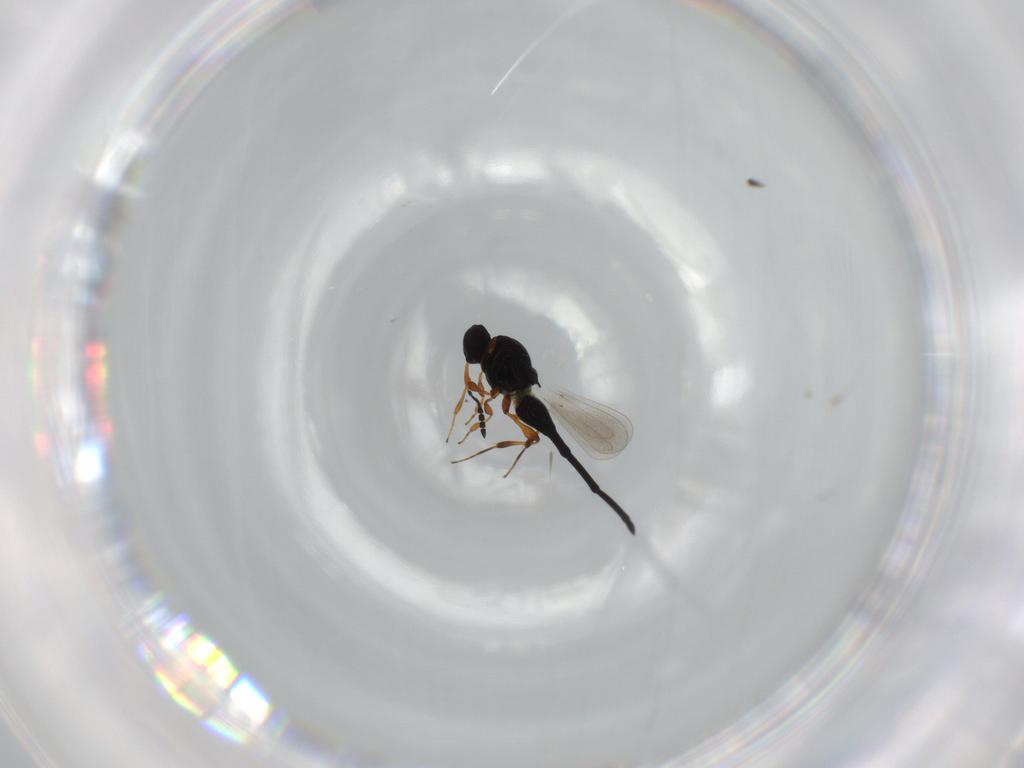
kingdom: Animalia
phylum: Arthropoda
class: Insecta
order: Hymenoptera
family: Platygastridae
